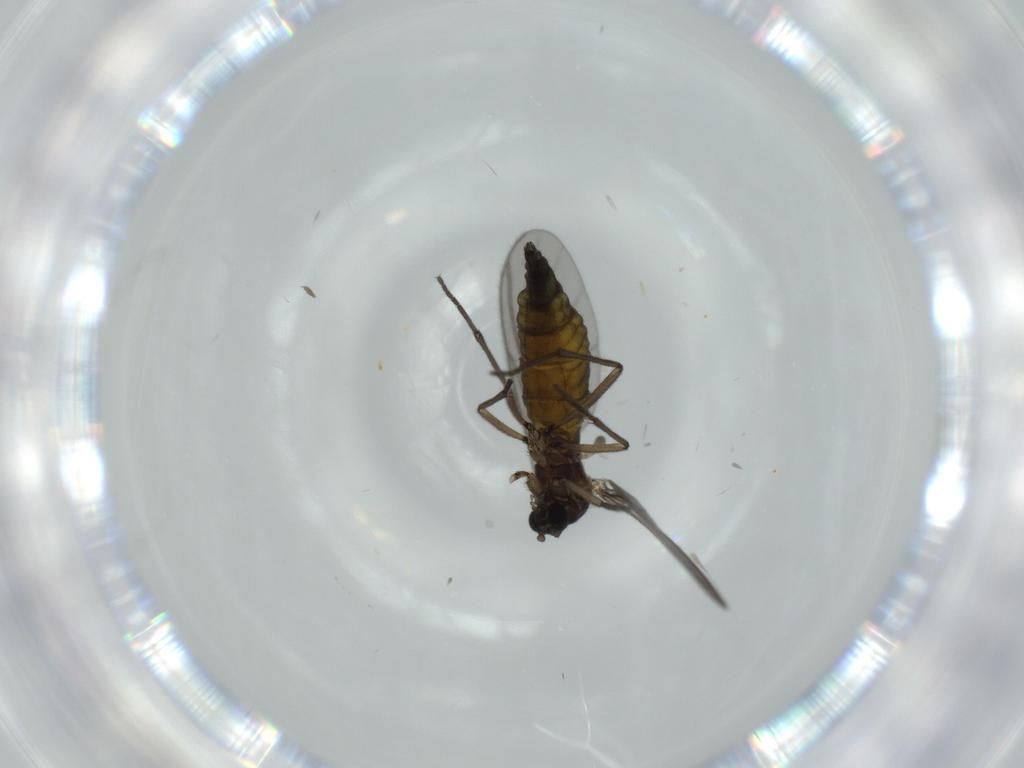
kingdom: Animalia
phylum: Arthropoda
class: Insecta
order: Diptera
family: Sciaridae
